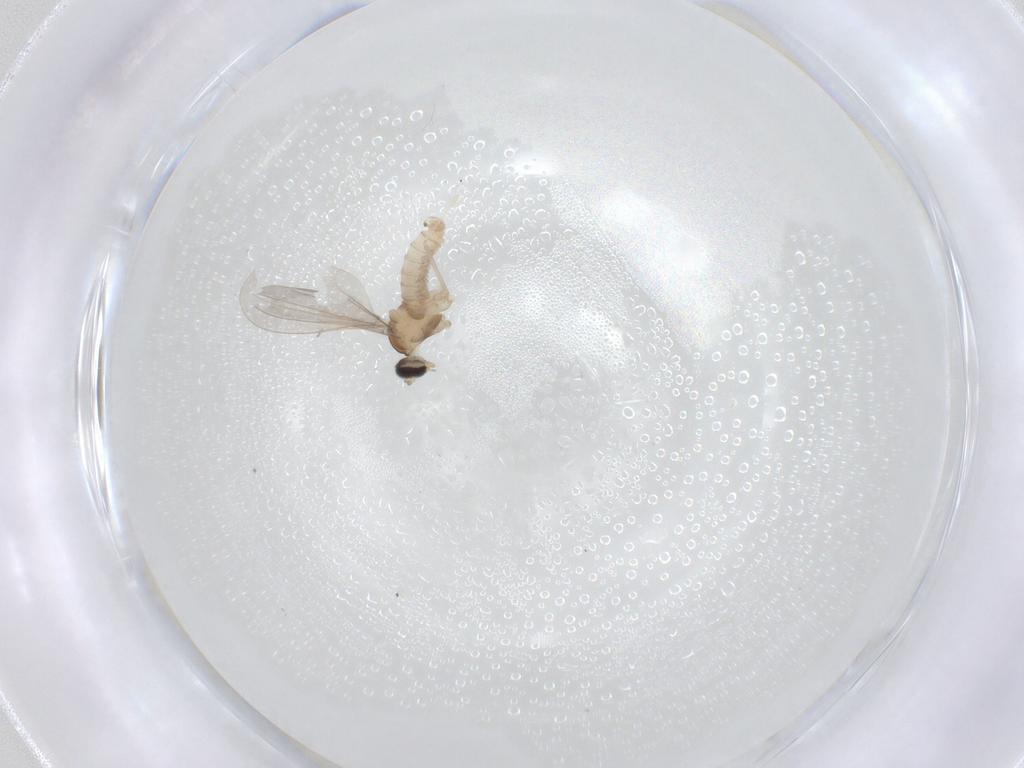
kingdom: Animalia
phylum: Arthropoda
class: Insecta
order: Diptera
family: Cecidomyiidae
